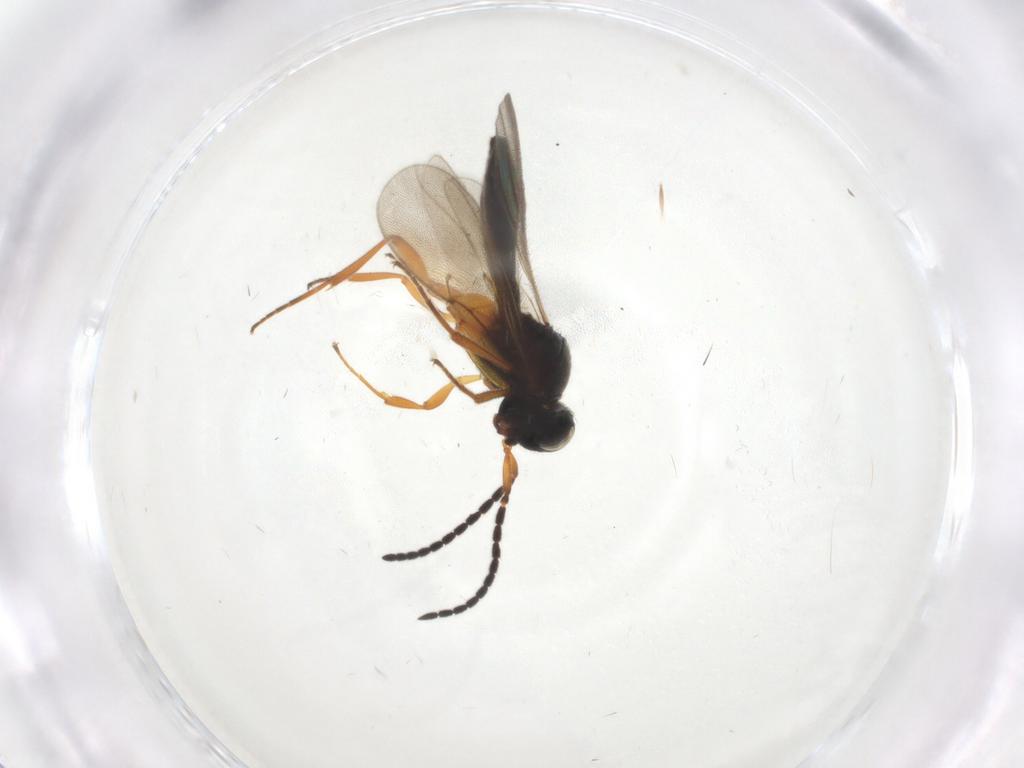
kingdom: Animalia
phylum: Arthropoda
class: Insecta
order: Hymenoptera
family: Scelionidae
